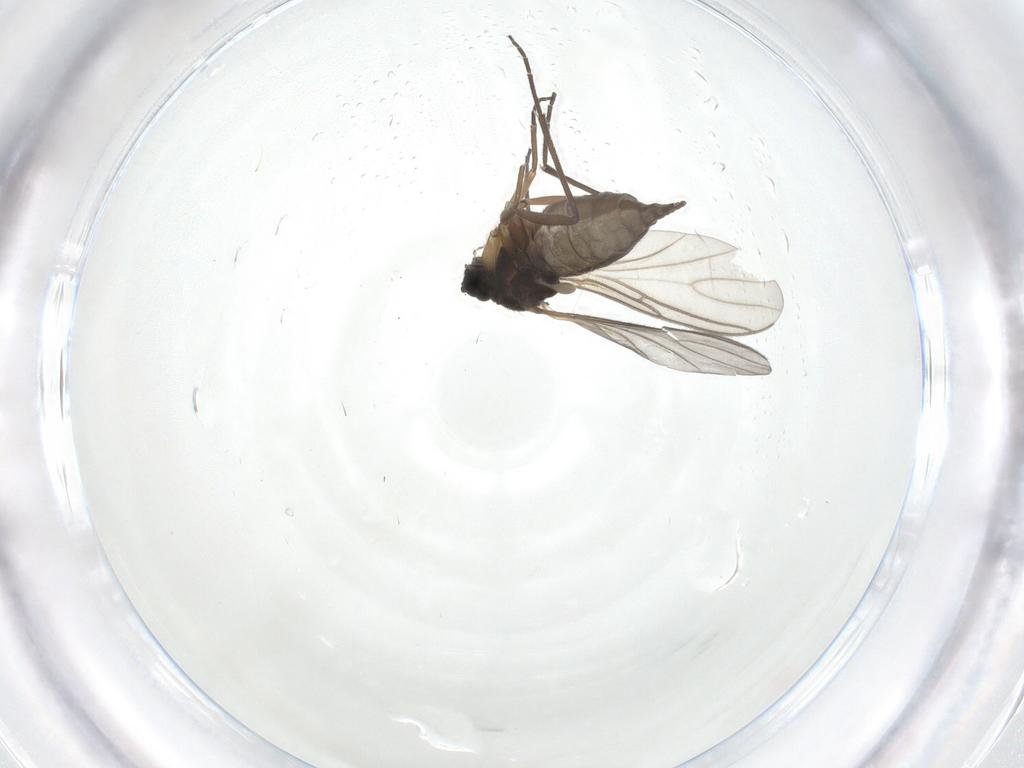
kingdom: Animalia
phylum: Arthropoda
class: Insecta
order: Diptera
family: Sciaridae
